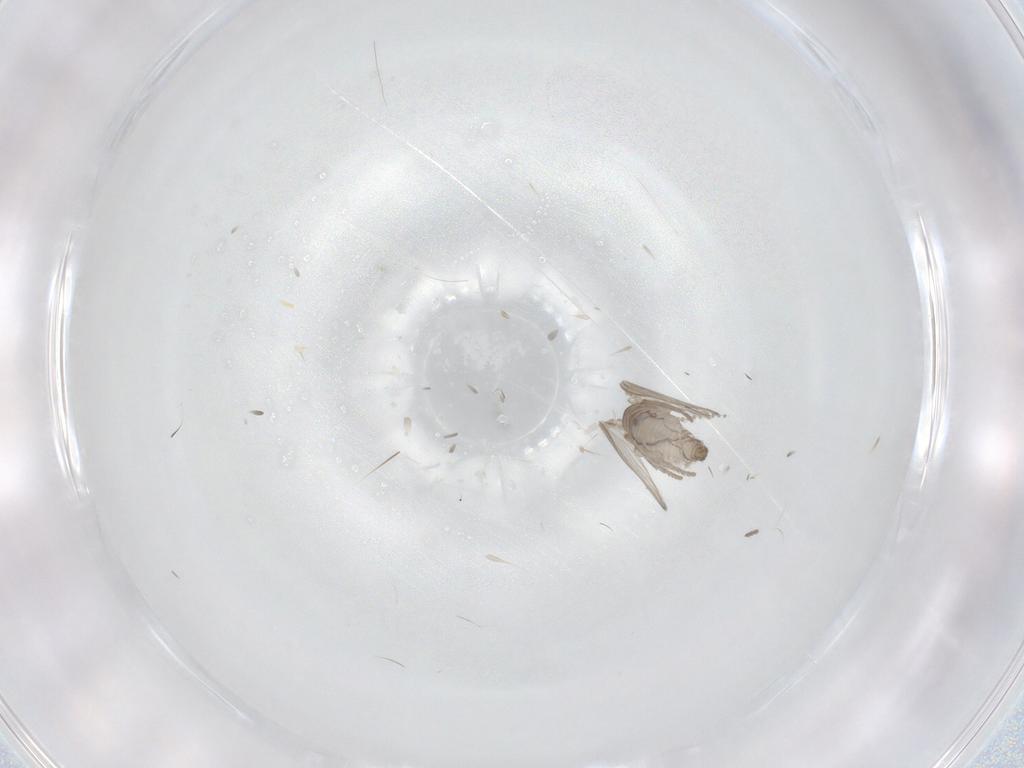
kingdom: Animalia
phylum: Arthropoda
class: Insecta
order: Diptera
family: Psychodidae
